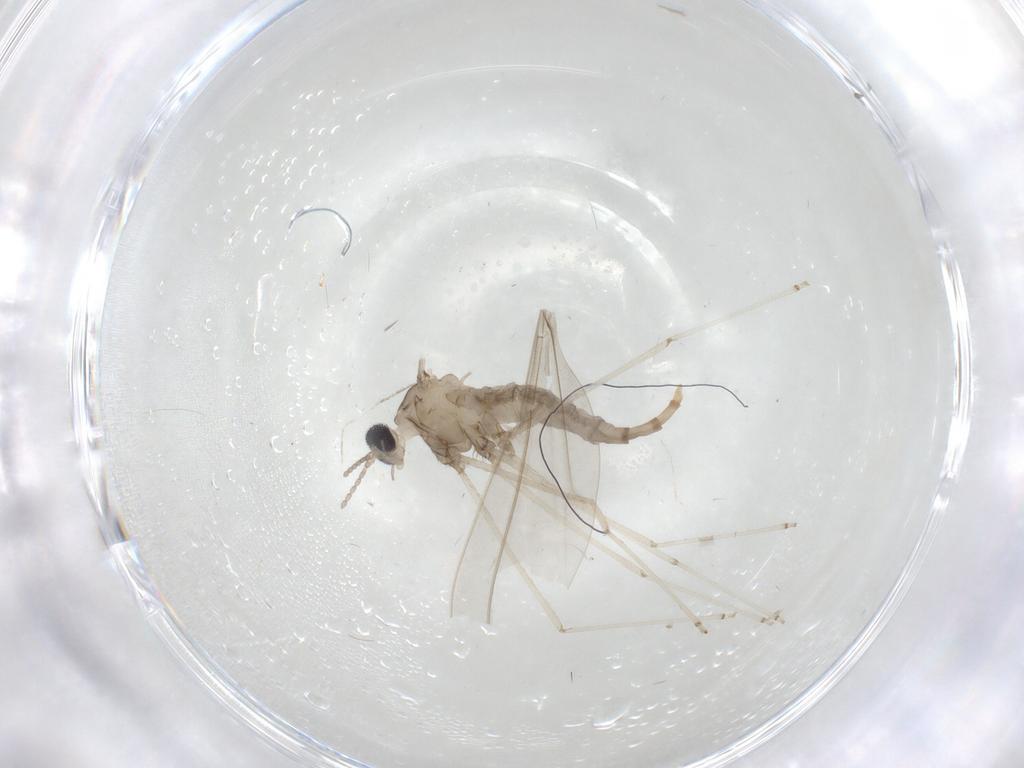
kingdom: Animalia
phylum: Arthropoda
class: Insecta
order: Diptera
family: Cecidomyiidae
